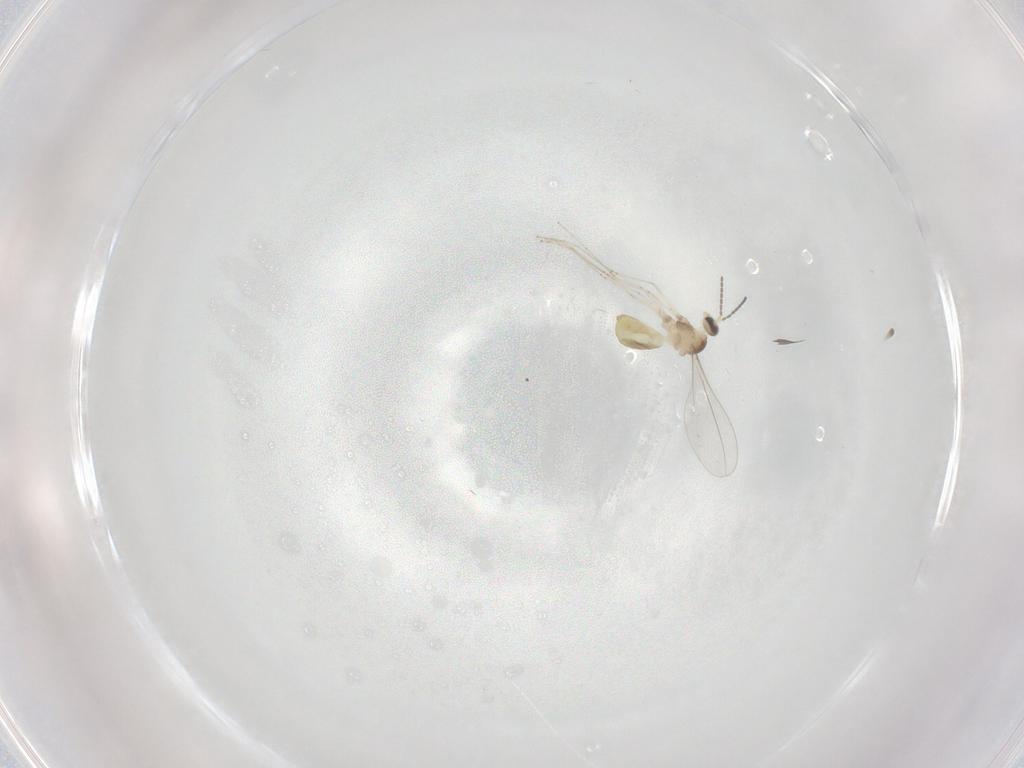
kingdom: Animalia
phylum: Arthropoda
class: Insecta
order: Diptera
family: Cecidomyiidae
